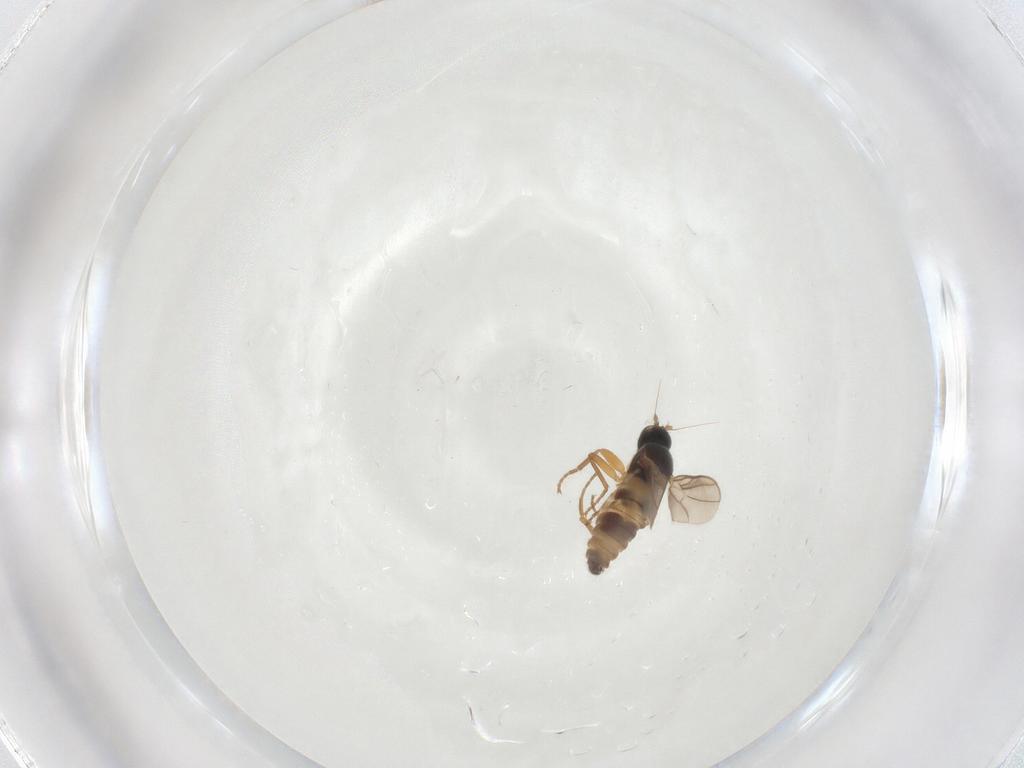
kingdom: Animalia
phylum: Arthropoda
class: Insecta
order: Diptera
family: Hybotidae
